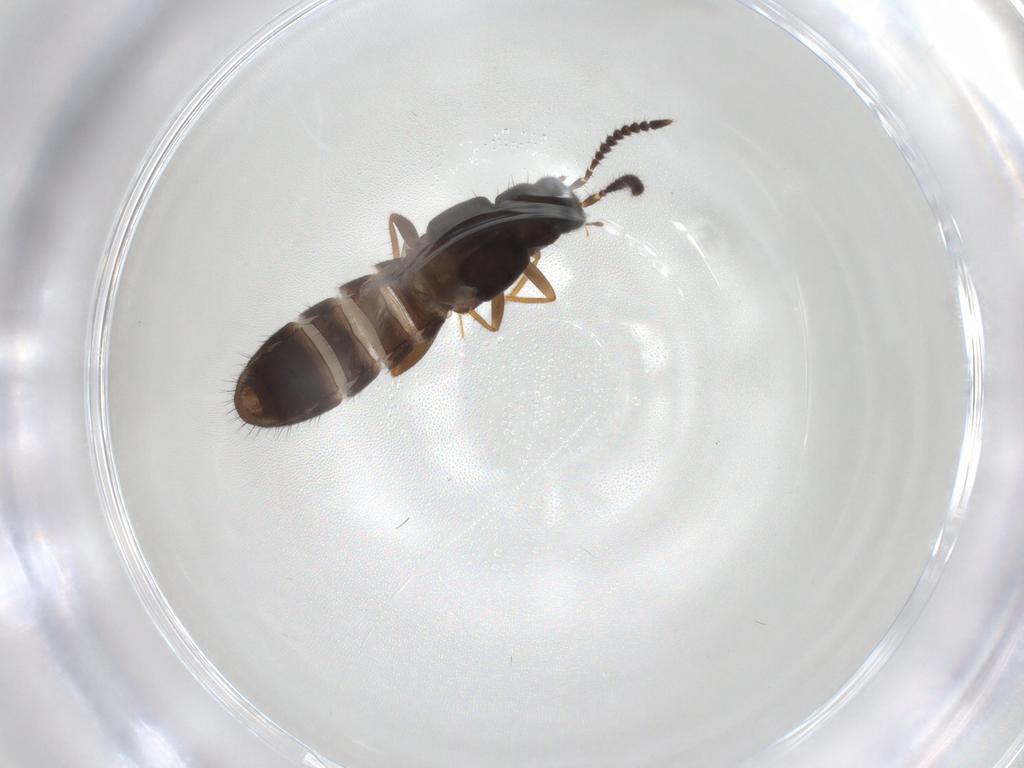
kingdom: Animalia
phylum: Arthropoda
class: Insecta
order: Coleoptera
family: Staphylinidae
